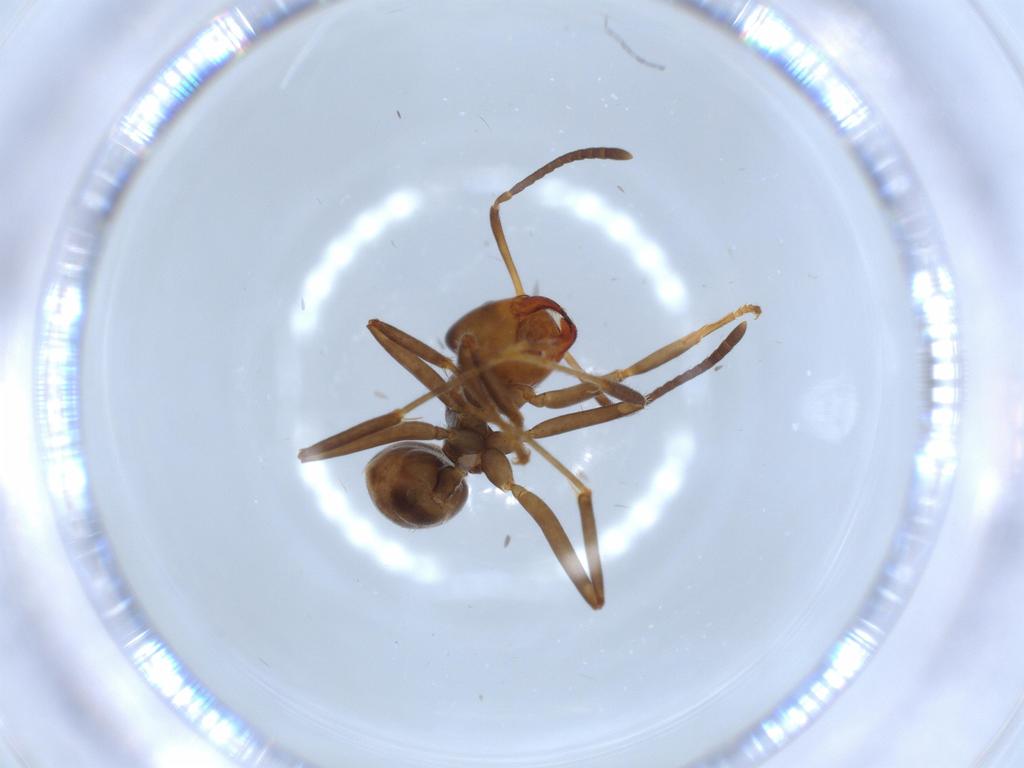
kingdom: Animalia
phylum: Arthropoda
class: Insecta
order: Hymenoptera
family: Formicidae
